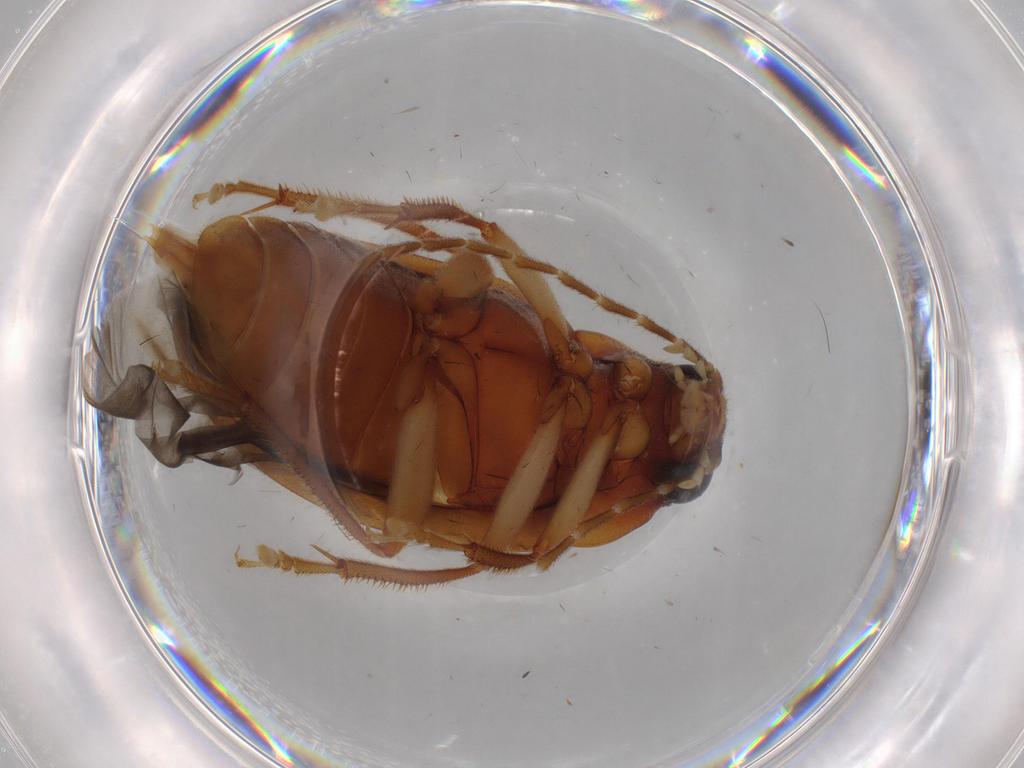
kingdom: Animalia
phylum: Arthropoda
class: Insecta
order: Coleoptera
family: Ptilodactylidae
